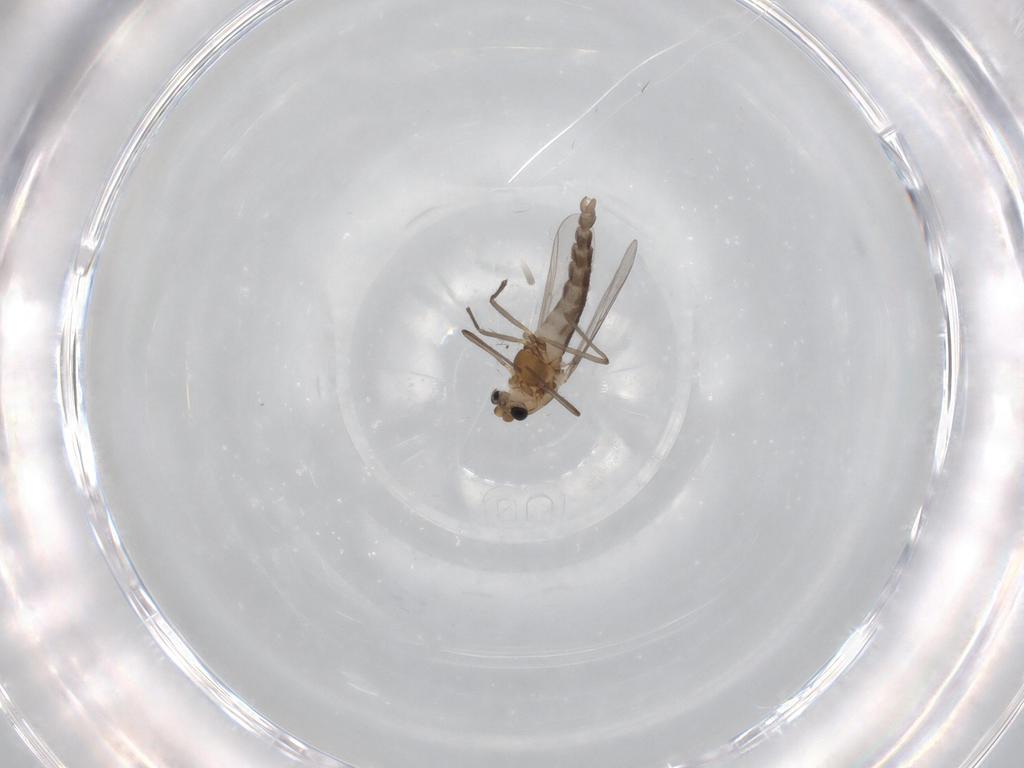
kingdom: Animalia
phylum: Arthropoda
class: Insecta
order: Diptera
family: Chironomidae
